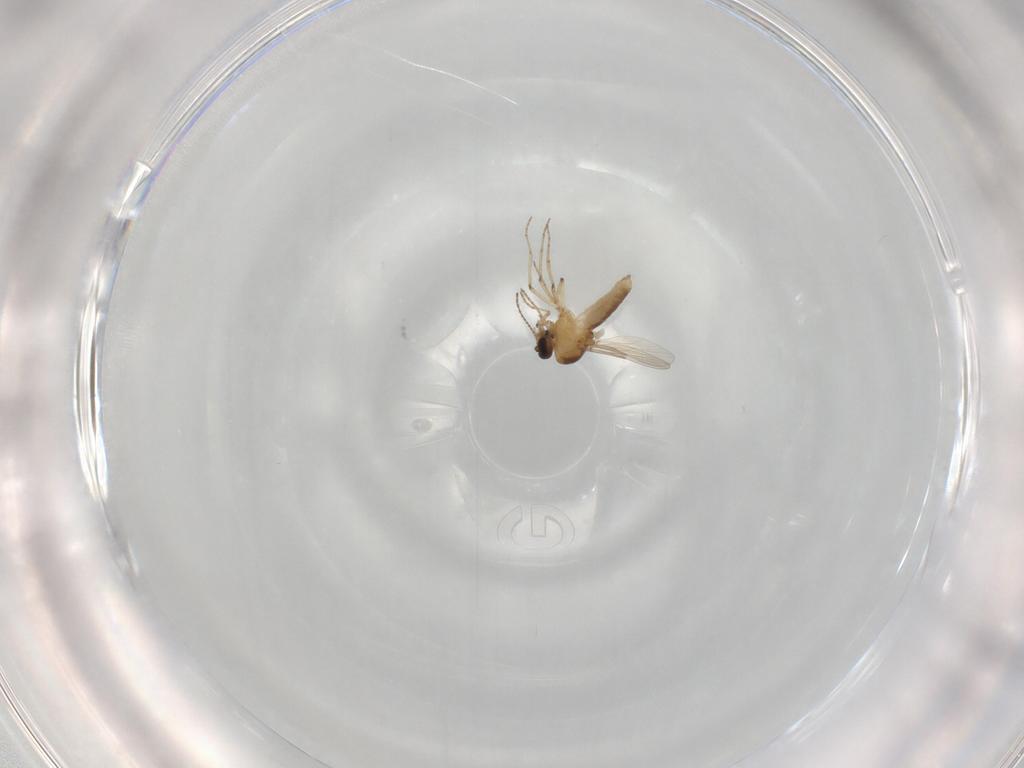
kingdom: Animalia
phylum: Arthropoda
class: Insecta
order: Diptera
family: Ceratopogonidae
